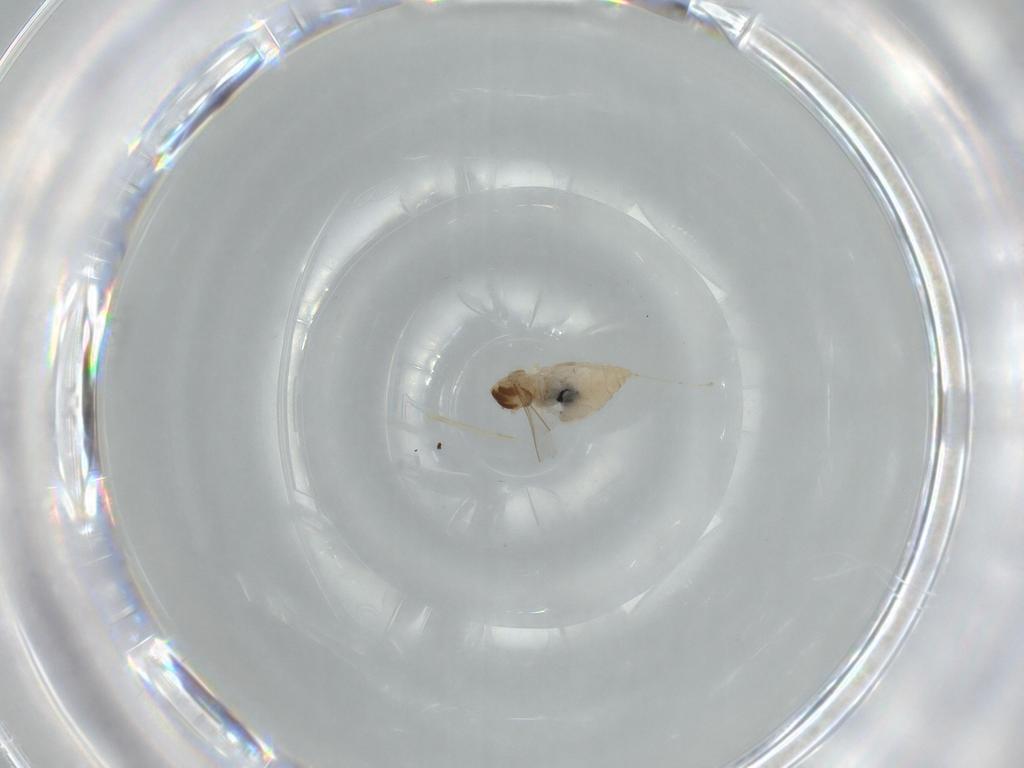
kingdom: Animalia
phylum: Arthropoda
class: Insecta
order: Diptera
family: Cecidomyiidae
